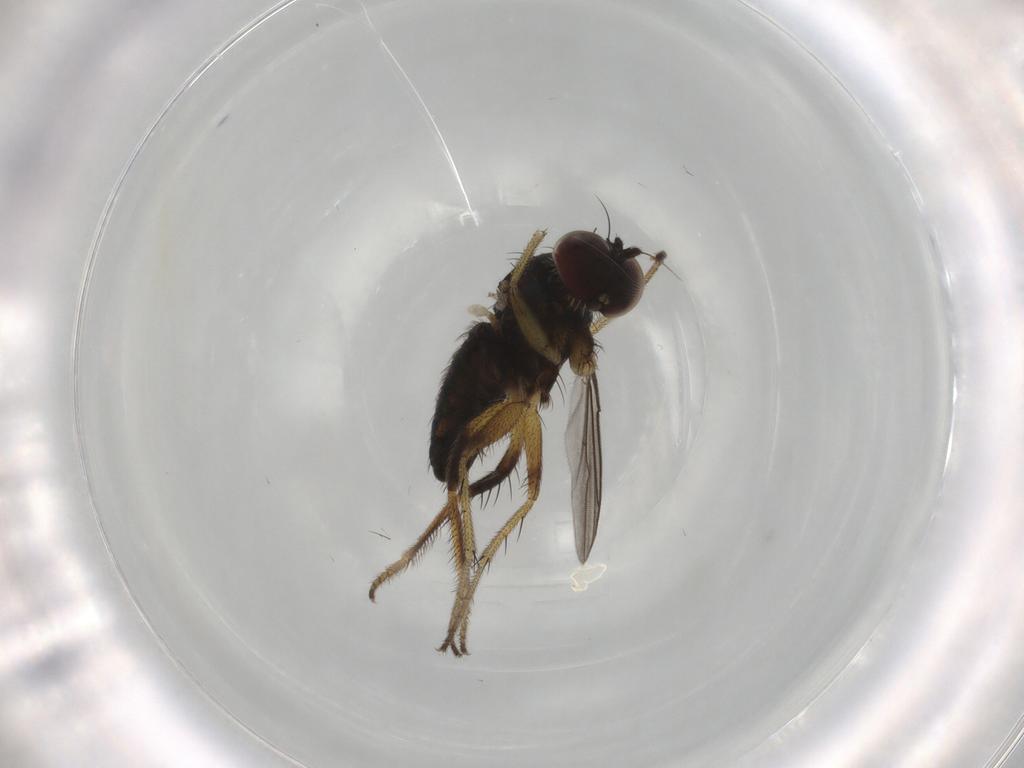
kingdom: Animalia
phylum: Arthropoda
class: Insecta
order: Diptera
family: Dolichopodidae
